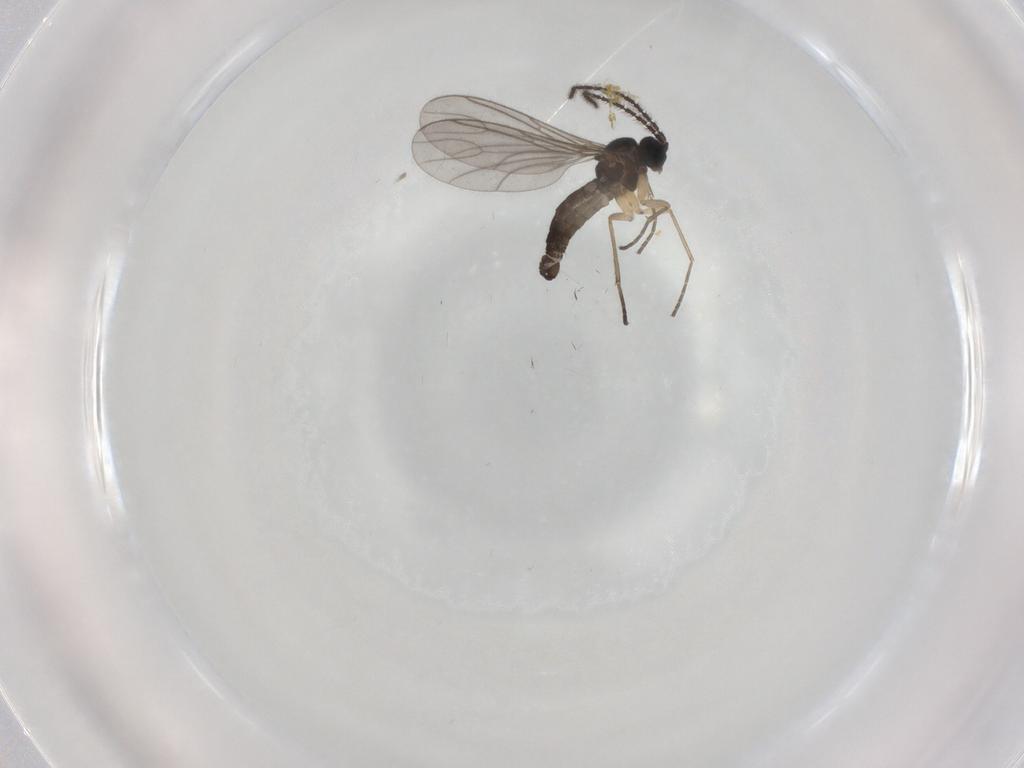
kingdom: Animalia
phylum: Arthropoda
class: Insecta
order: Diptera
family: Sciaridae
